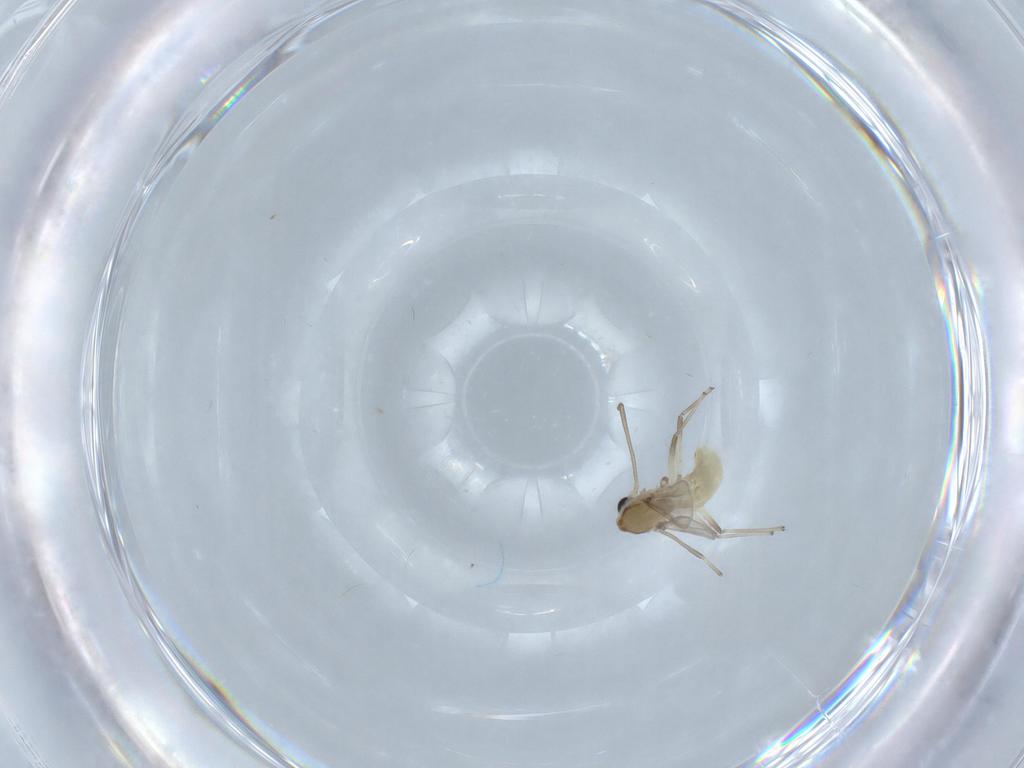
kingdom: Animalia
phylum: Arthropoda
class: Insecta
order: Diptera
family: Chironomidae
